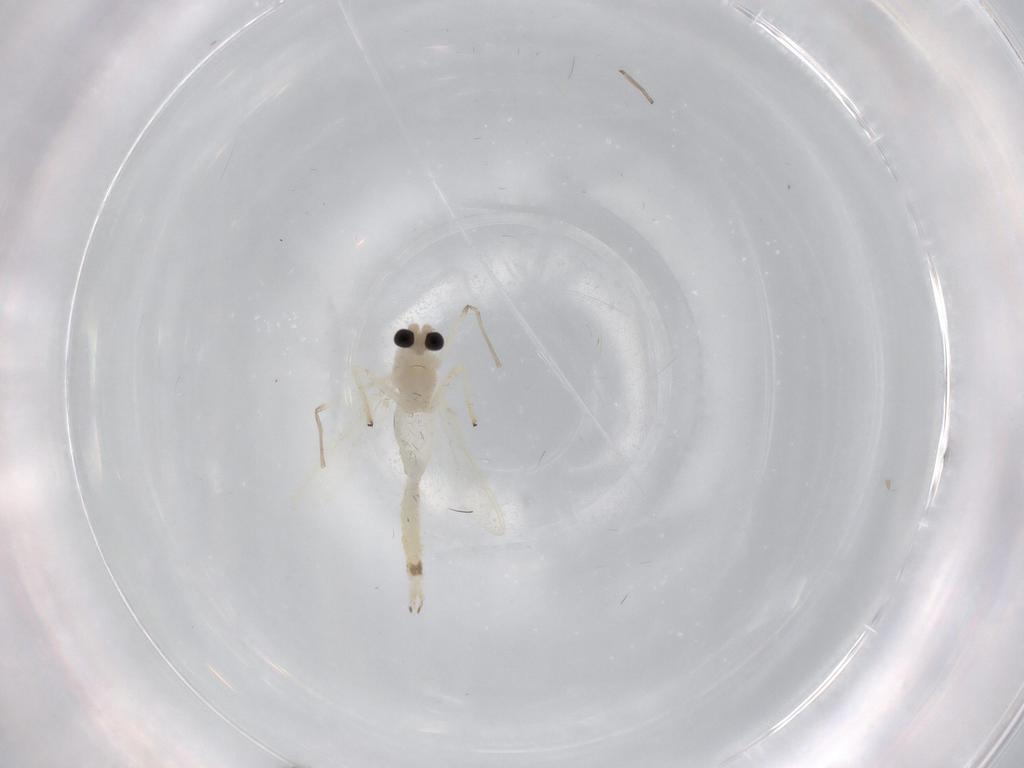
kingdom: Animalia
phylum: Arthropoda
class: Insecta
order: Diptera
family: Chironomidae
